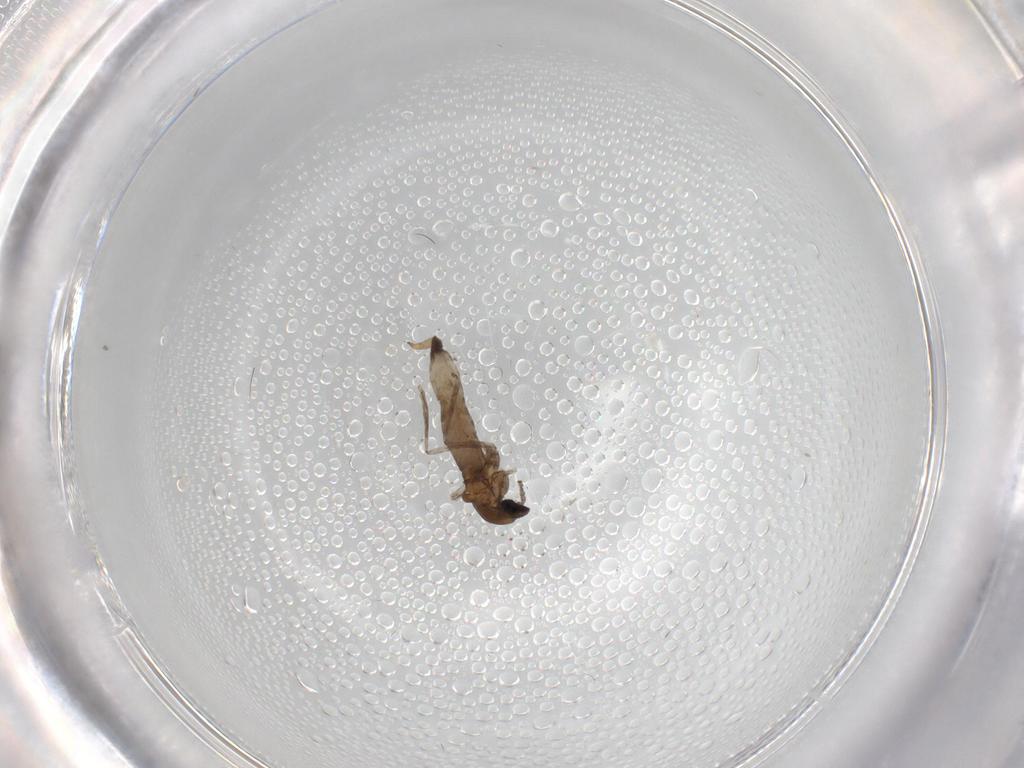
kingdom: Animalia
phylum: Arthropoda
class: Insecta
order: Diptera
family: Cecidomyiidae
